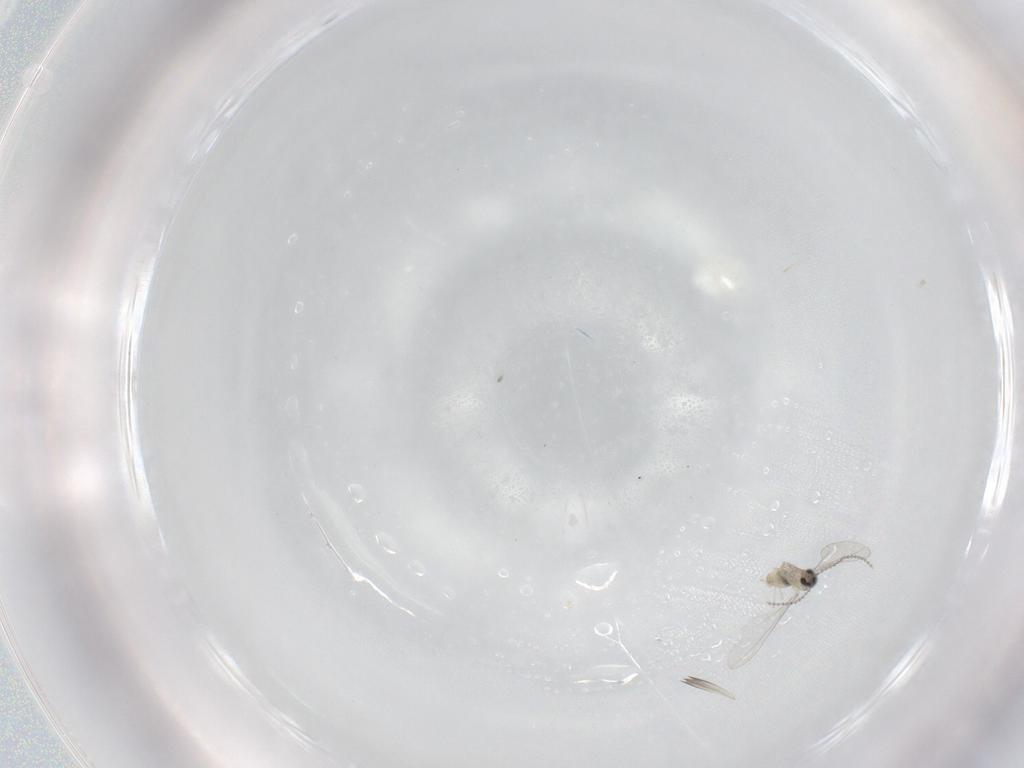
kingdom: Animalia
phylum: Arthropoda
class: Insecta
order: Diptera
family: Cecidomyiidae
